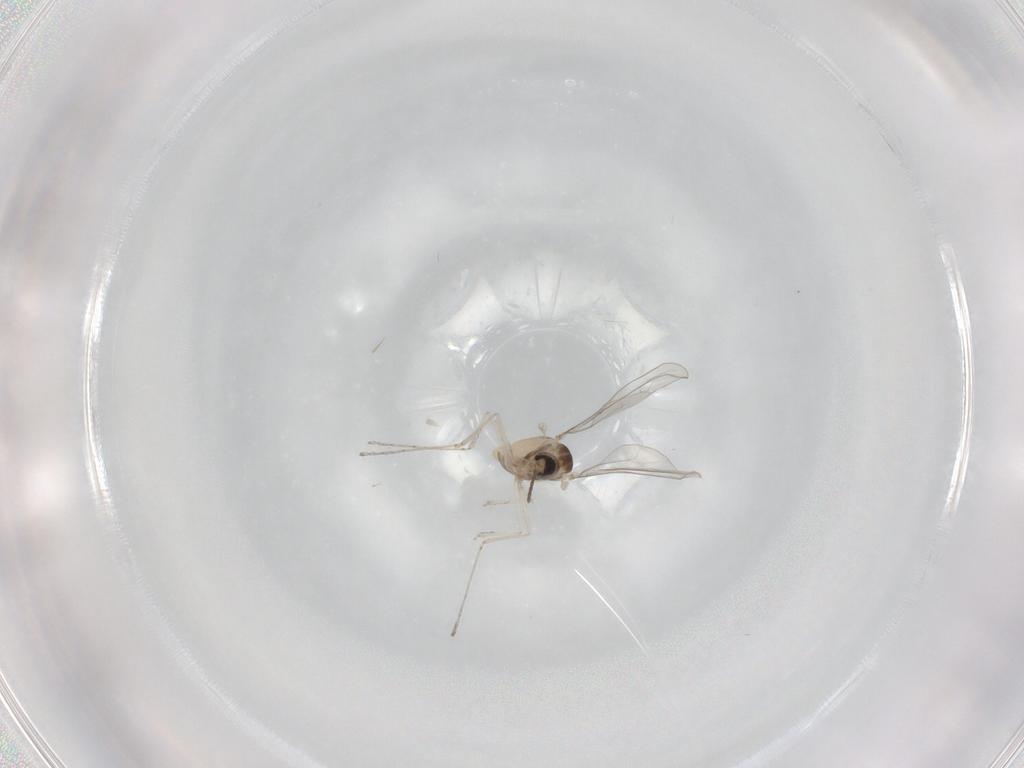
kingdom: Animalia
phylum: Arthropoda
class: Insecta
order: Diptera
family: Cecidomyiidae
